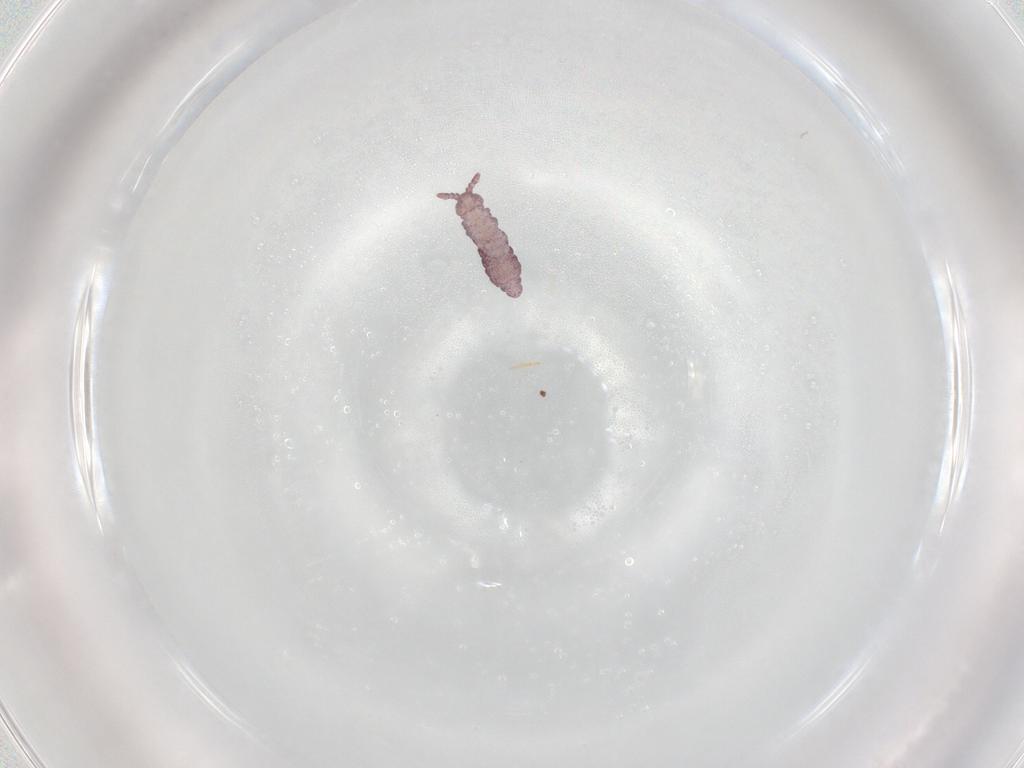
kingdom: Animalia
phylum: Arthropoda
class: Collembola
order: Poduromorpha
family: Hypogastruridae
